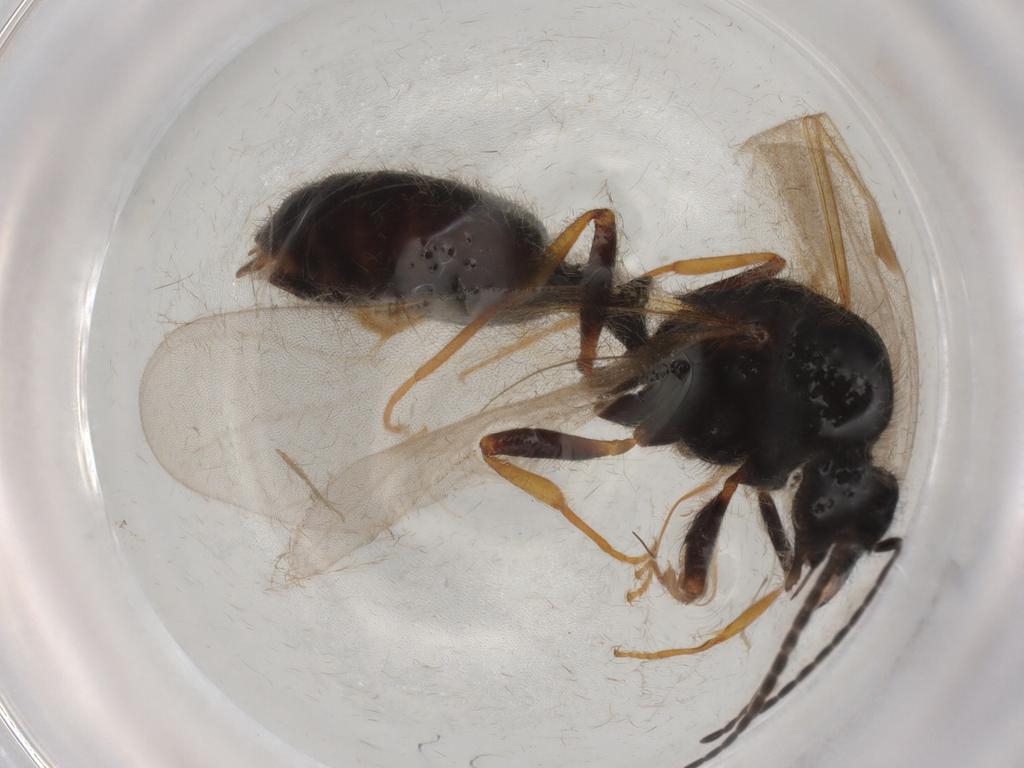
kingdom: Animalia
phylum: Arthropoda
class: Insecta
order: Hymenoptera
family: Formicidae
